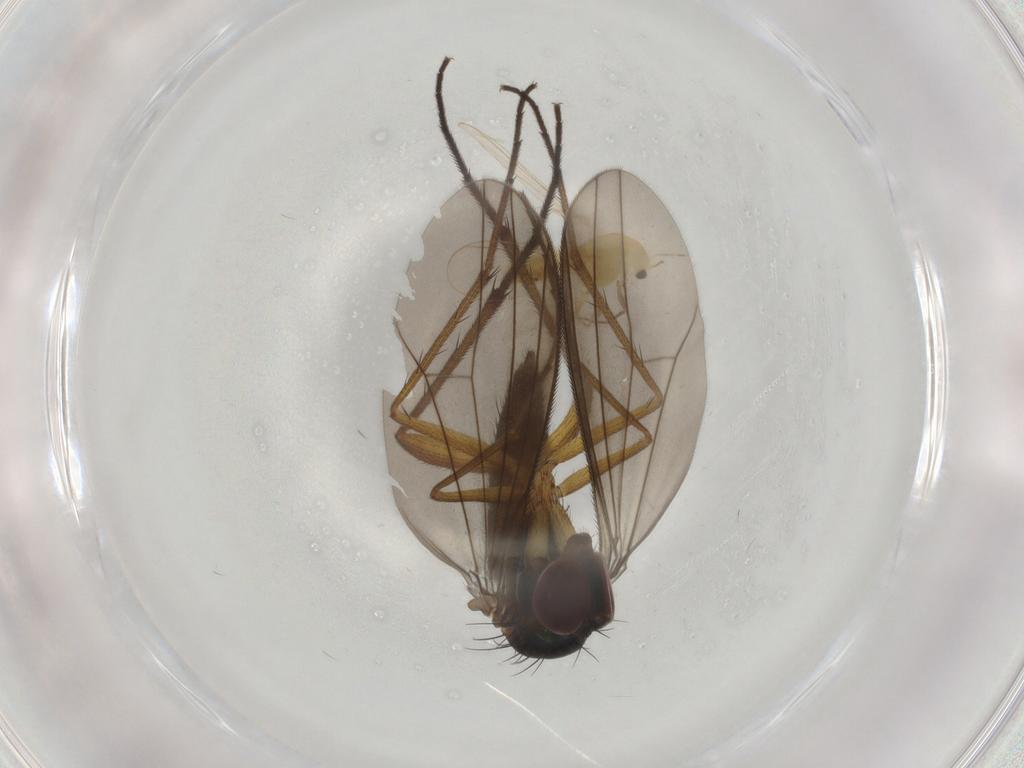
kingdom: Animalia
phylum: Arthropoda
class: Insecta
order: Diptera
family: Dolichopodidae
